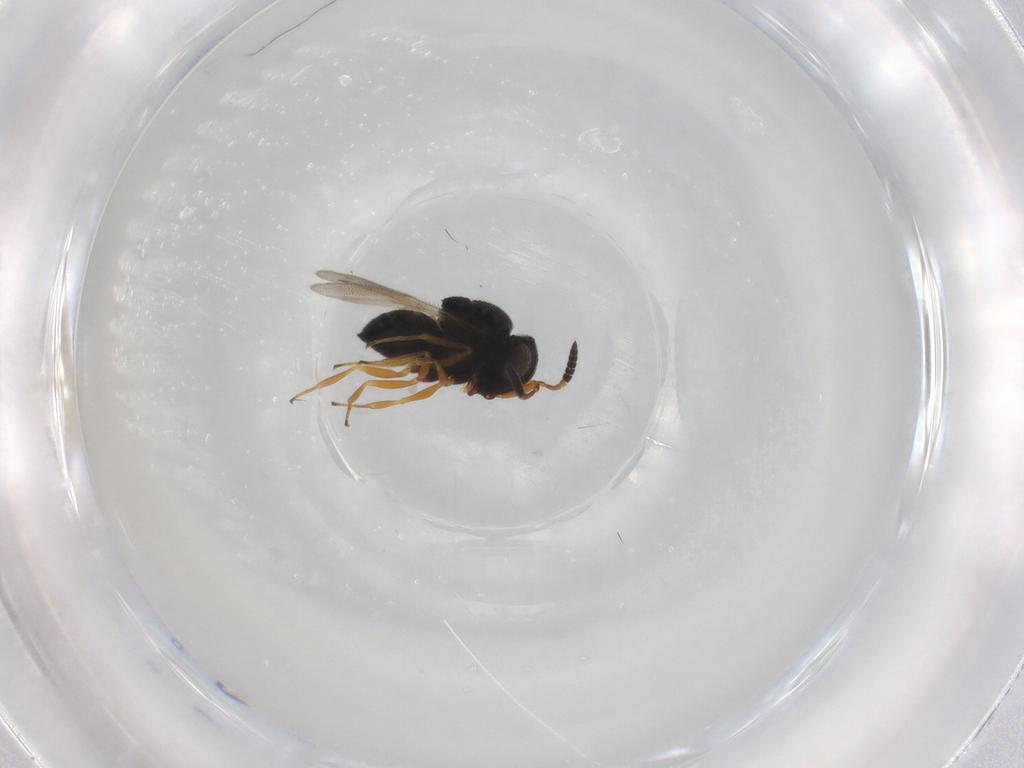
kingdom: Animalia
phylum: Arthropoda
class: Insecta
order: Hymenoptera
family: Scelionidae
